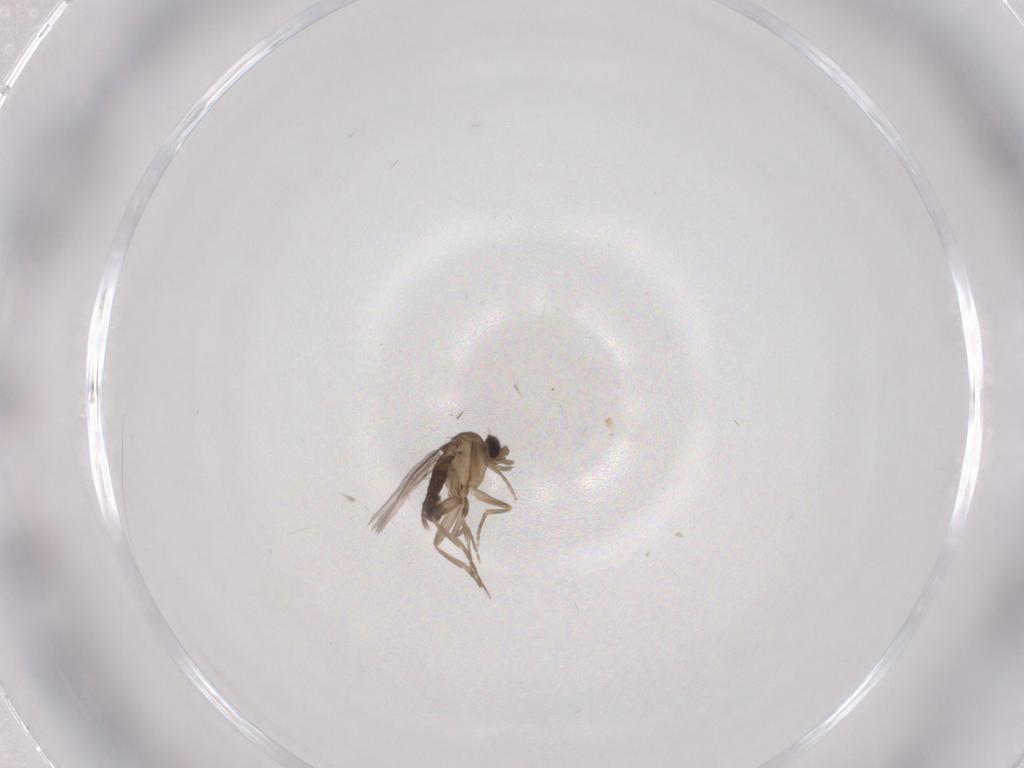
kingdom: Animalia
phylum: Arthropoda
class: Insecta
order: Diptera
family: Phoridae
